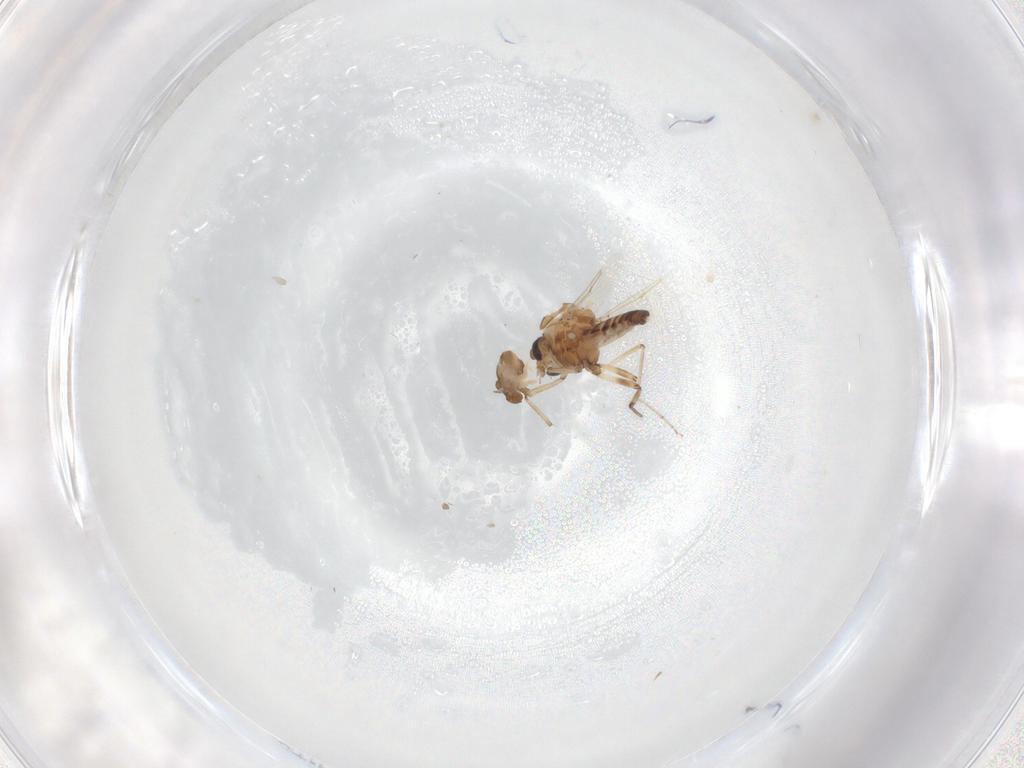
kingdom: Animalia
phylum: Arthropoda
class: Insecta
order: Diptera
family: Ceratopogonidae
